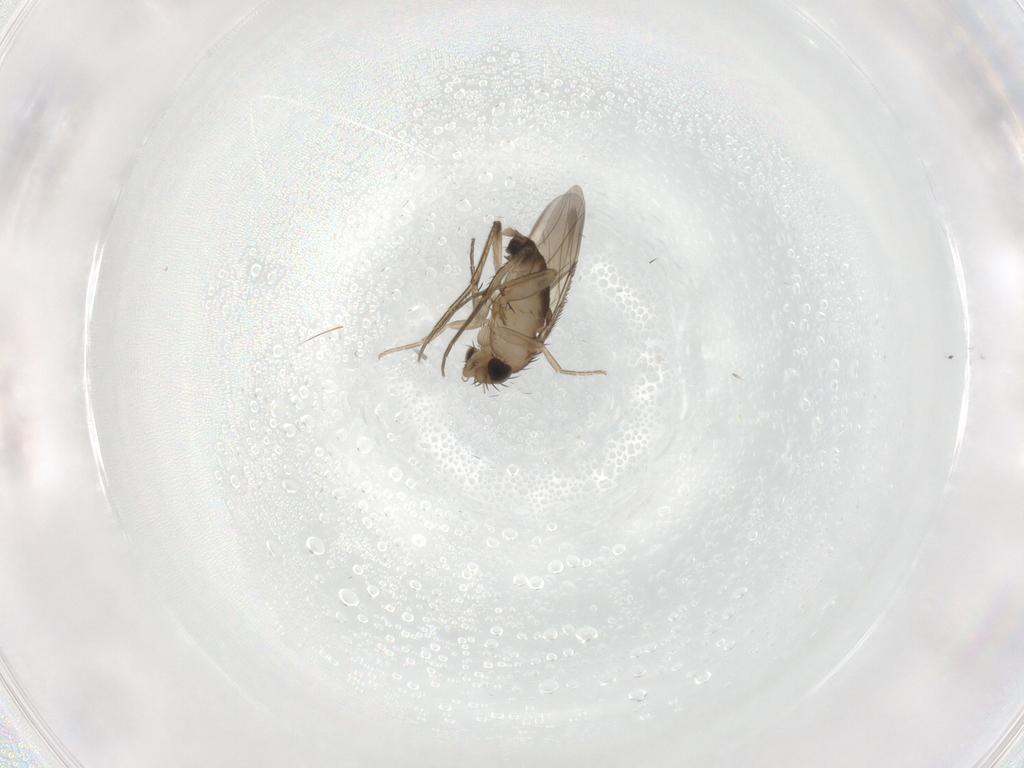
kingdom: Animalia
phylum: Arthropoda
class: Insecta
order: Diptera
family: Phoridae
